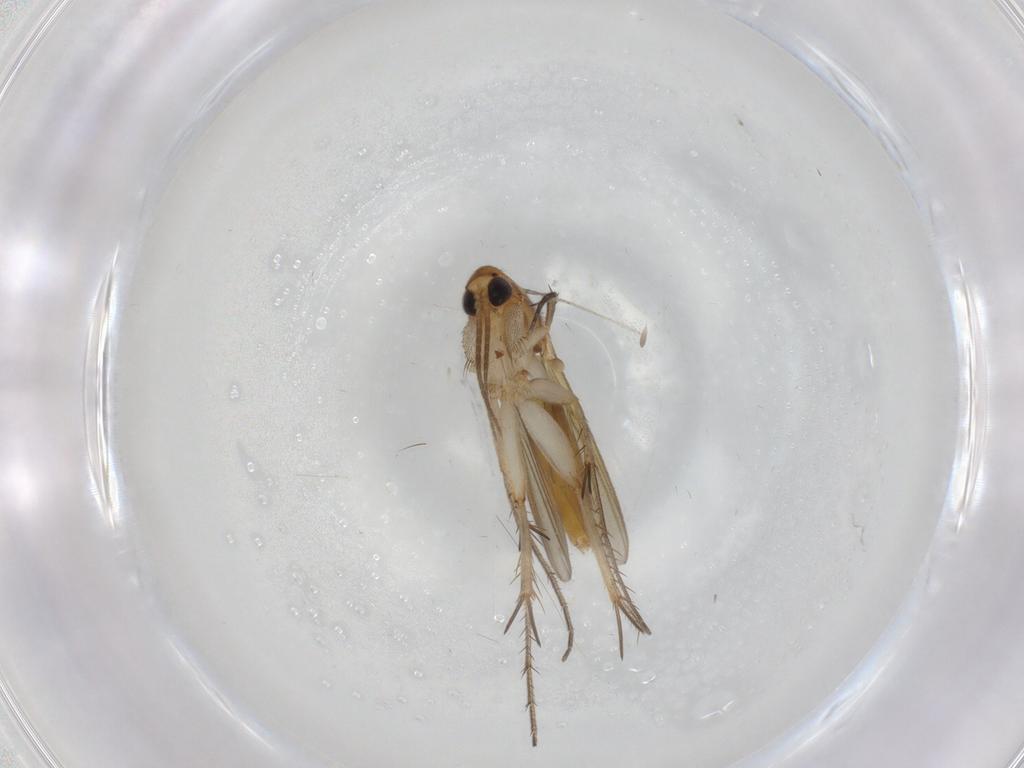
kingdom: Animalia
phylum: Arthropoda
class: Insecta
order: Diptera
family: Mycetophilidae
